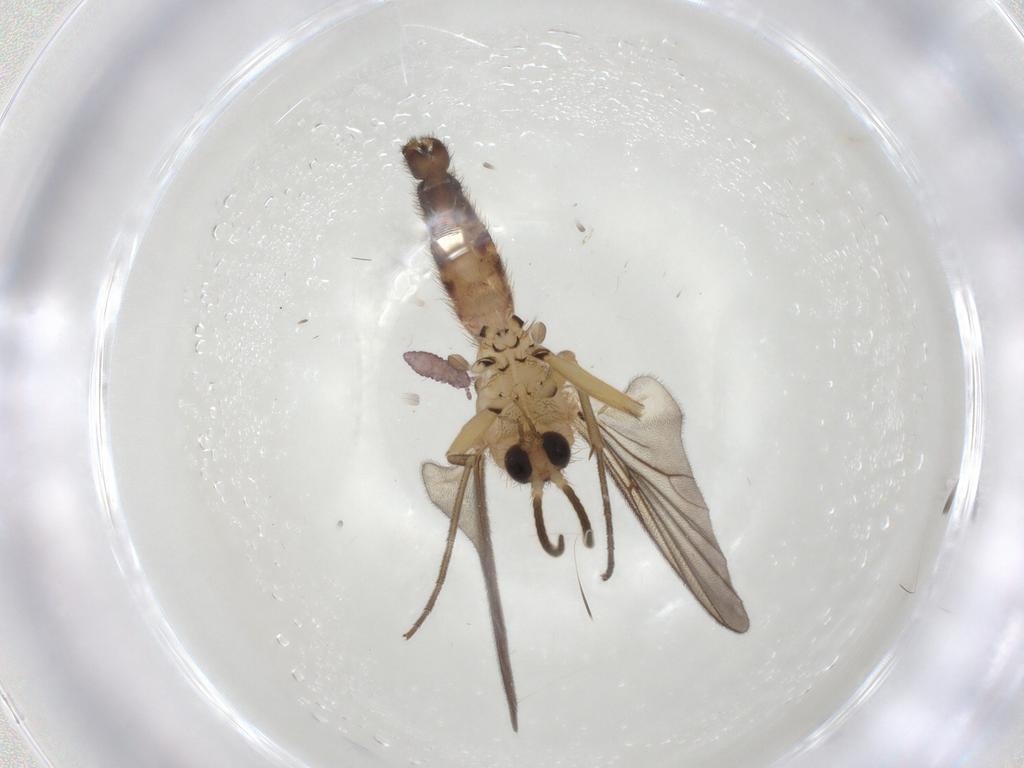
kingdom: Animalia
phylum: Arthropoda
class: Insecta
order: Diptera
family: Mycetophilidae
